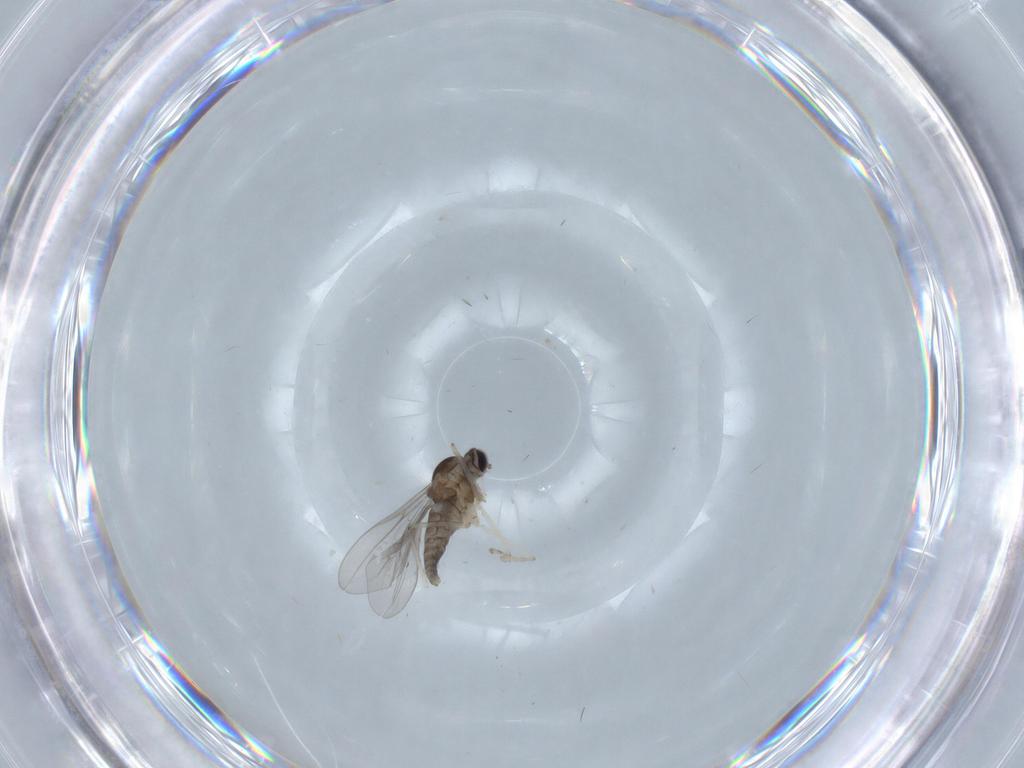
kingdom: Animalia
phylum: Arthropoda
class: Insecta
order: Diptera
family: Cecidomyiidae
